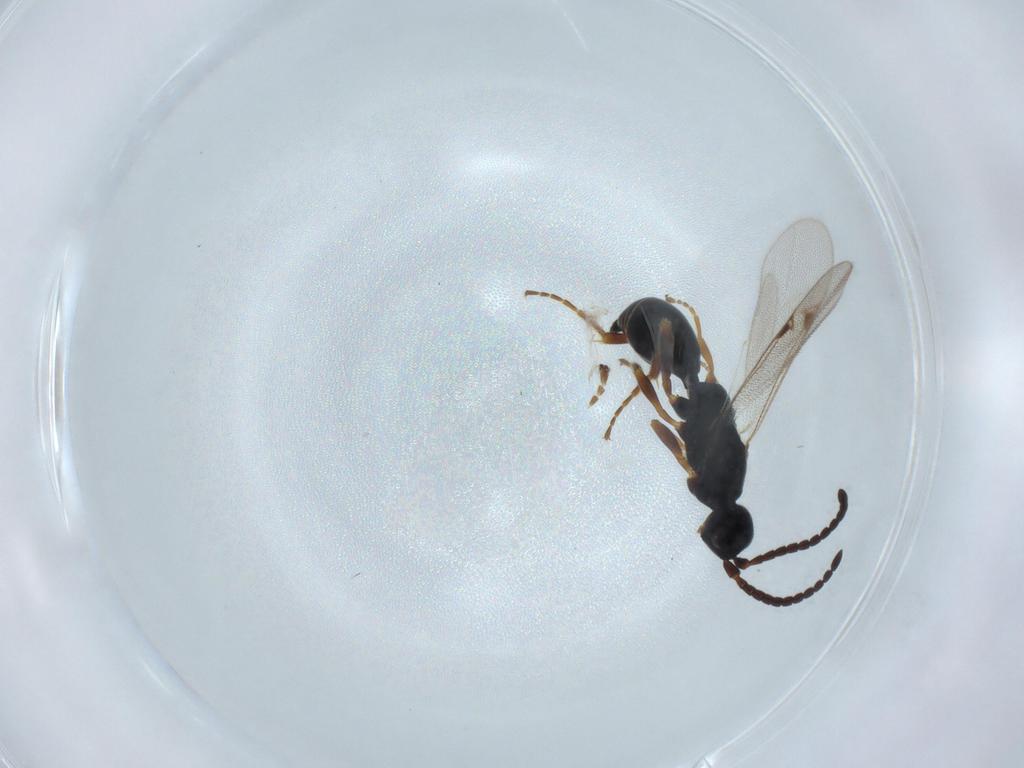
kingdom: Animalia
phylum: Arthropoda
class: Insecta
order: Hymenoptera
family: Proctotrupidae
